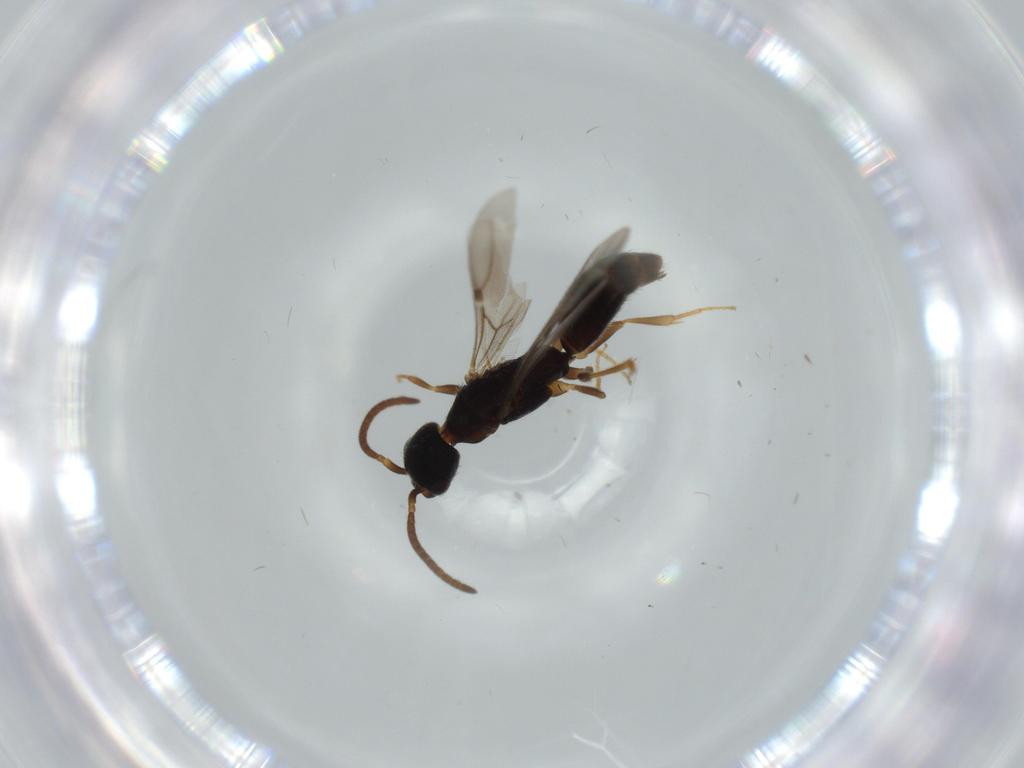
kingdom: Animalia
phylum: Arthropoda
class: Insecta
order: Hymenoptera
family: Bethylidae
